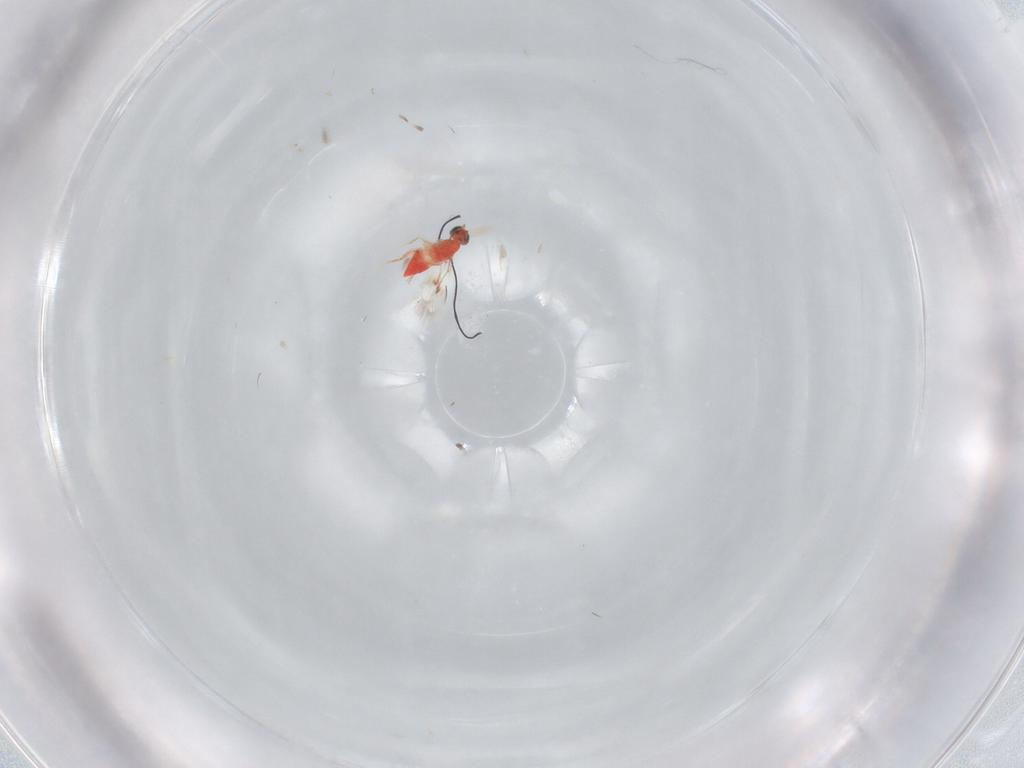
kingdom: Animalia
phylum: Arthropoda
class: Insecta
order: Hymenoptera
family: Trichogrammatidae
